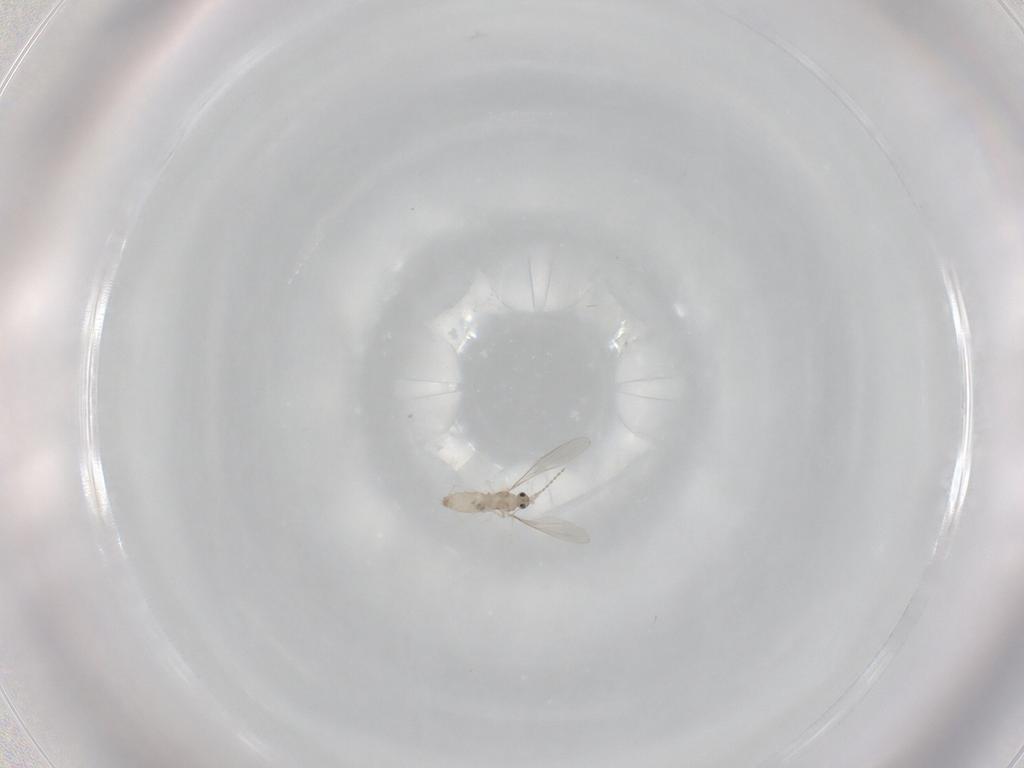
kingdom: Animalia
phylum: Arthropoda
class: Insecta
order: Diptera
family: Cecidomyiidae
